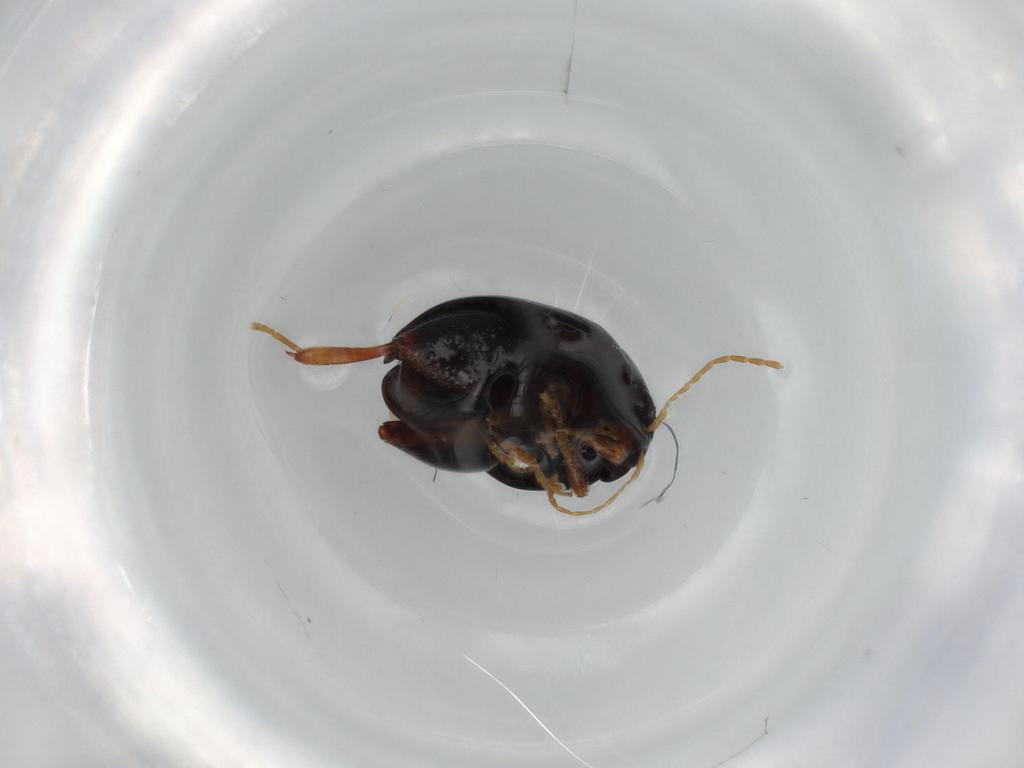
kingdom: Animalia
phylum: Arthropoda
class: Insecta
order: Coleoptera
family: Chrysomelidae
